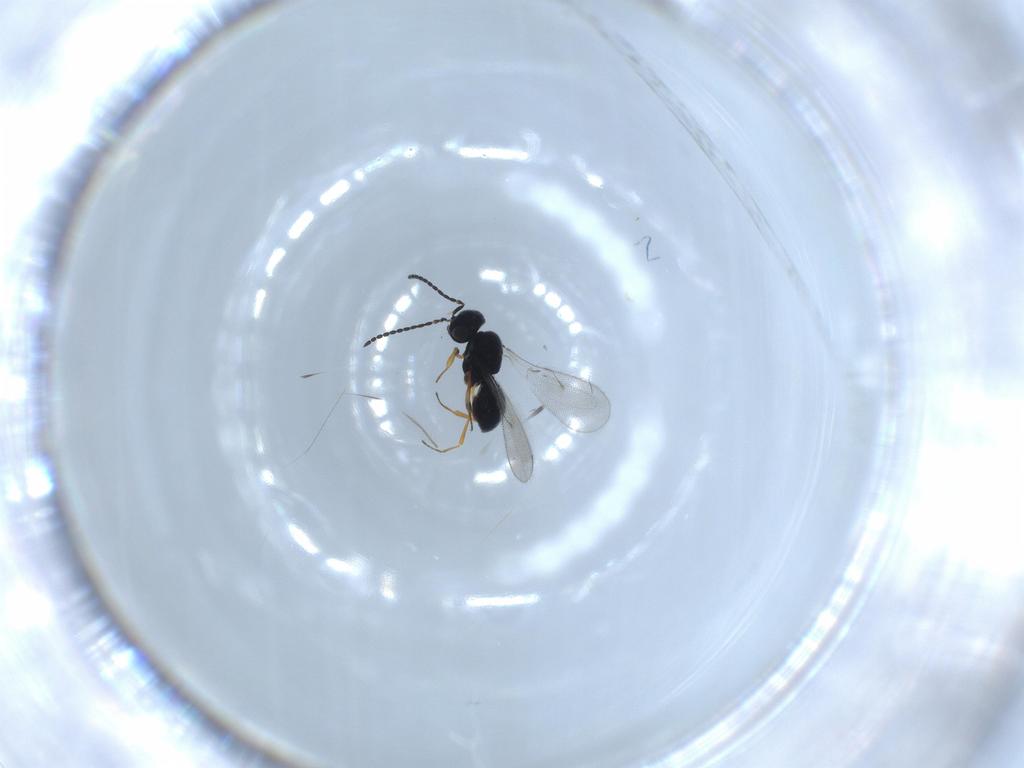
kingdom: Animalia
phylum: Arthropoda
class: Insecta
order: Hymenoptera
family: Scelionidae
